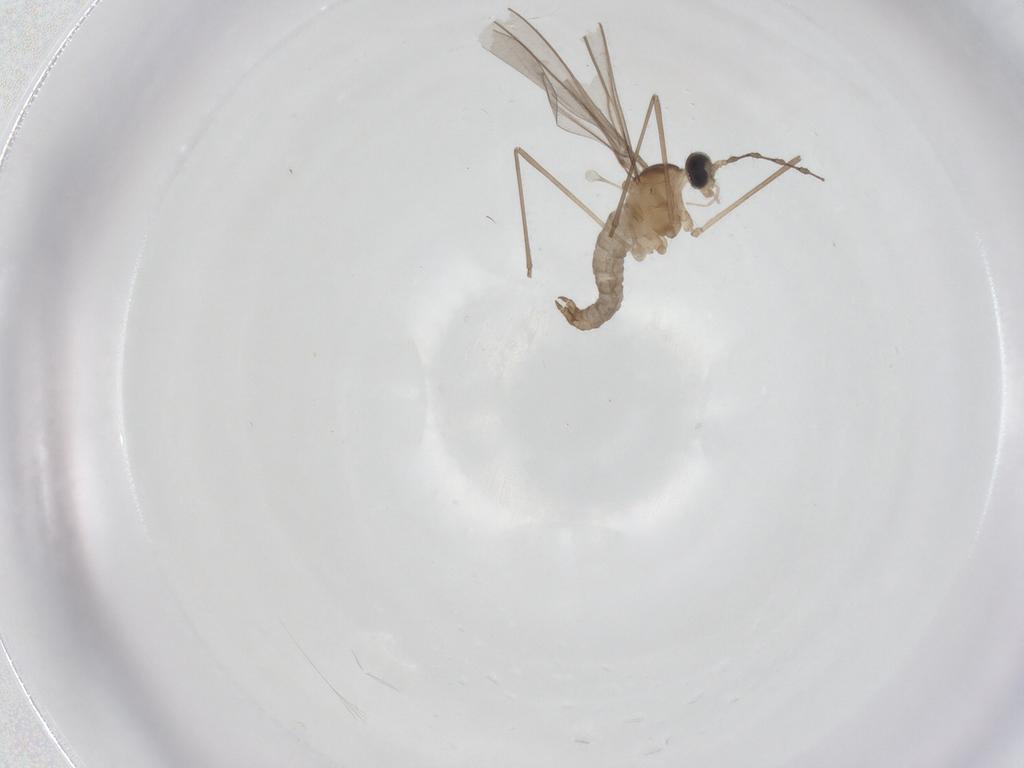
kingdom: Animalia
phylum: Arthropoda
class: Insecta
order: Diptera
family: Cecidomyiidae
